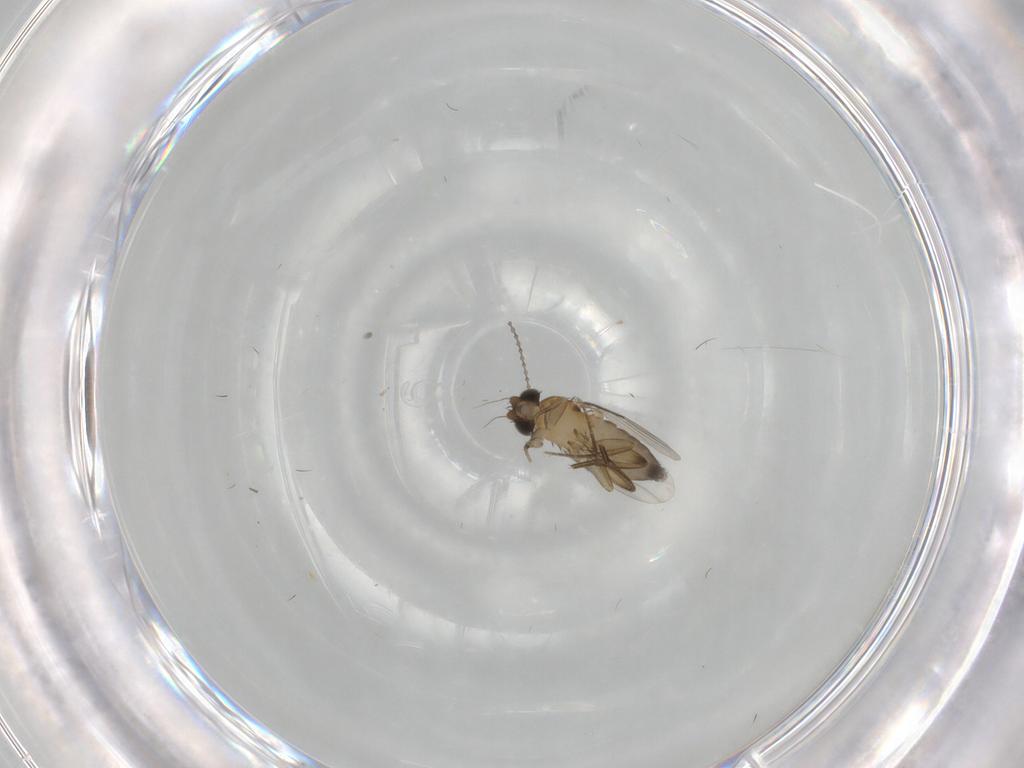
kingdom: Animalia
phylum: Arthropoda
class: Insecta
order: Diptera
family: Phoridae
